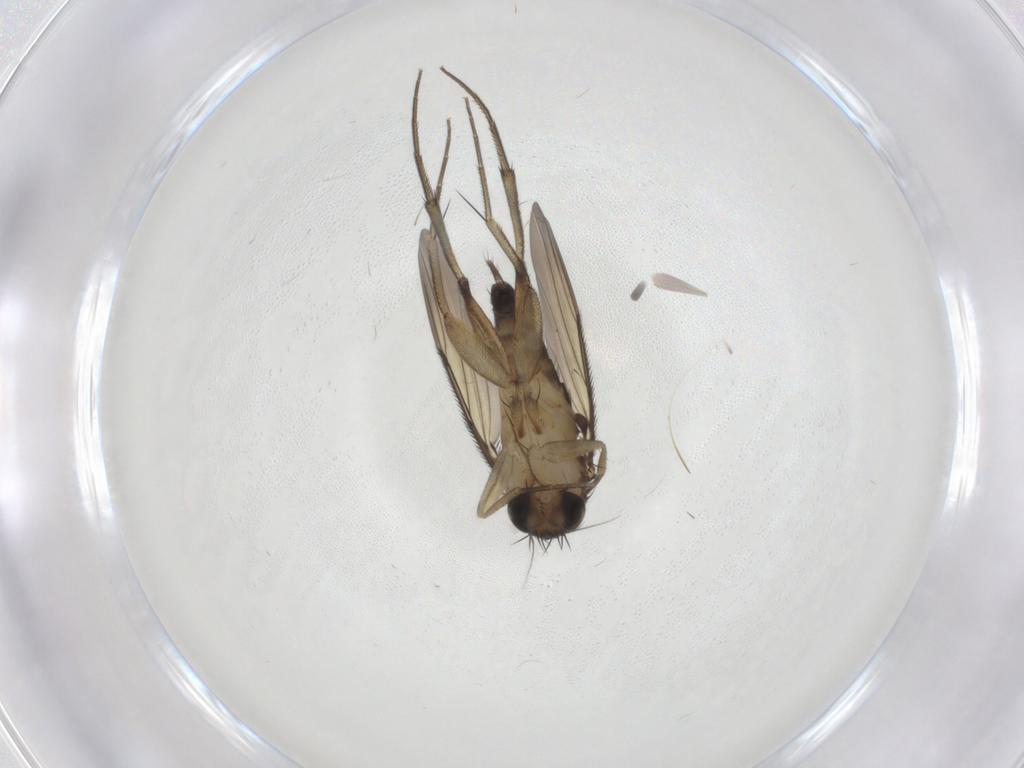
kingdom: Animalia
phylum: Arthropoda
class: Insecta
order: Diptera
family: Phoridae
